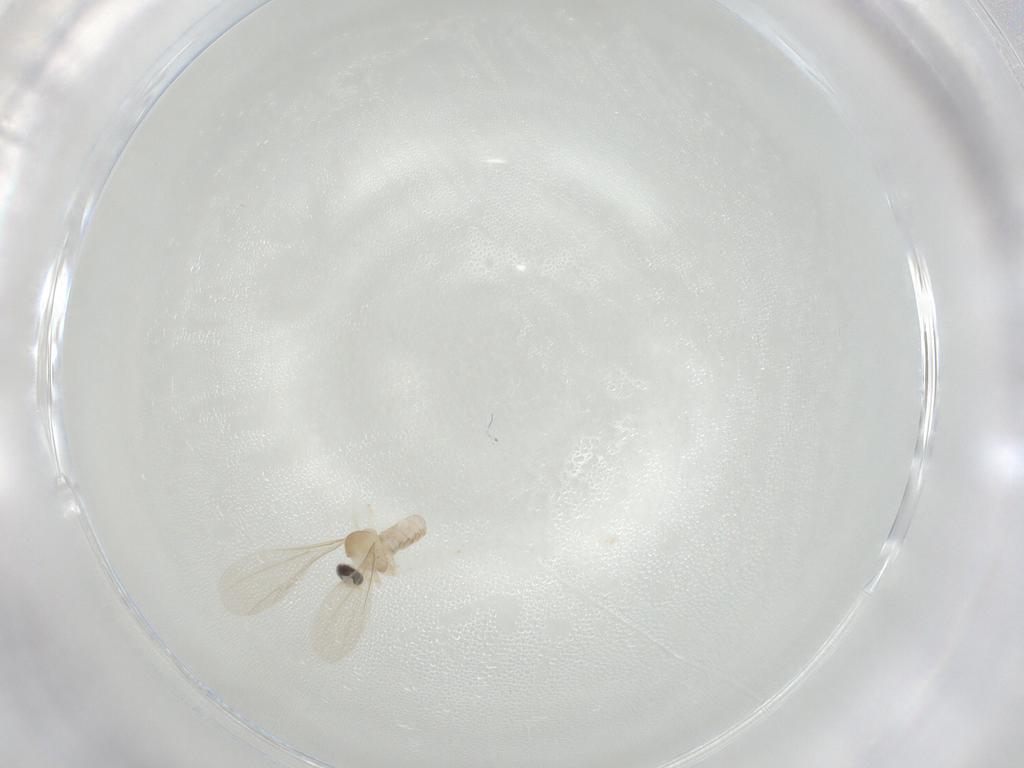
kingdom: Animalia
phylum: Arthropoda
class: Insecta
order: Diptera
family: Cecidomyiidae
